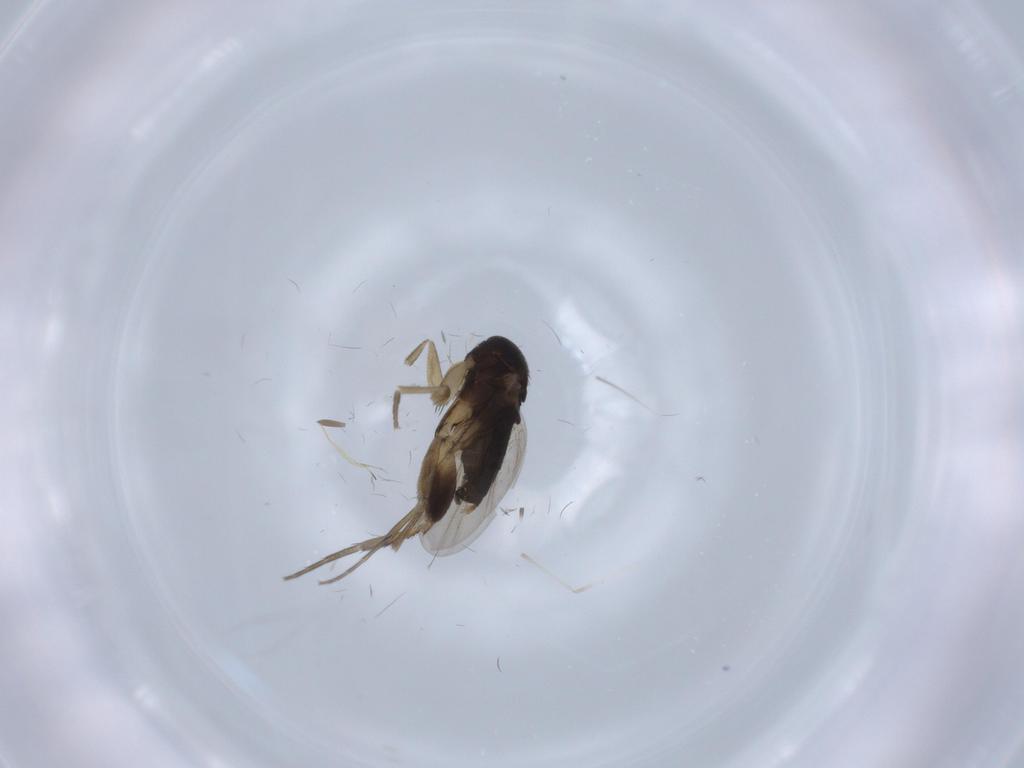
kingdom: Animalia
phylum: Arthropoda
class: Insecta
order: Diptera
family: Phoridae
